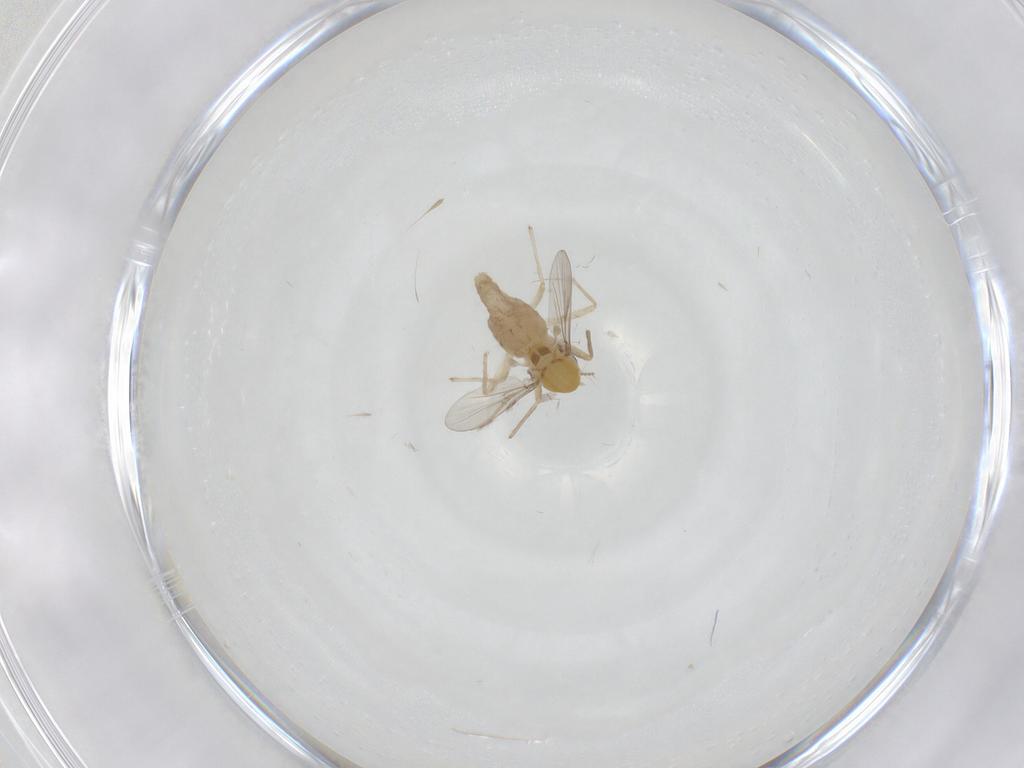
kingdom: Animalia
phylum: Arthropoda
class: Insecta
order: Diptera
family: Chironomidae
